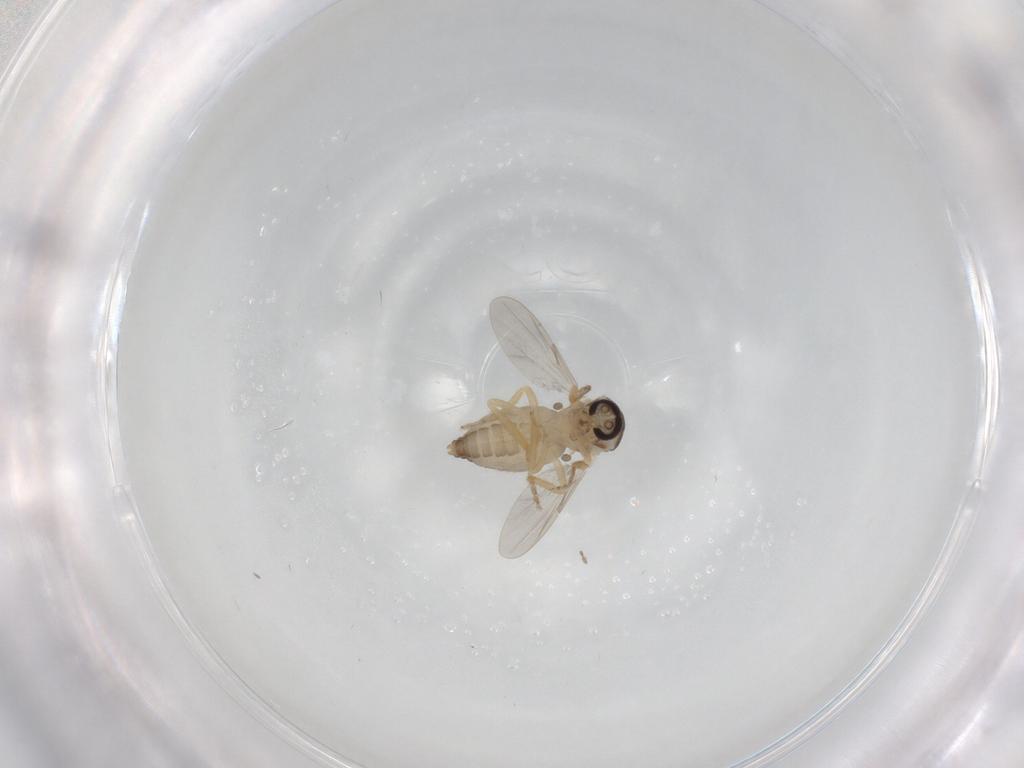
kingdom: Animalia
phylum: Arthropoda
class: Insecta
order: Diptera
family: Ceratopogonidae
